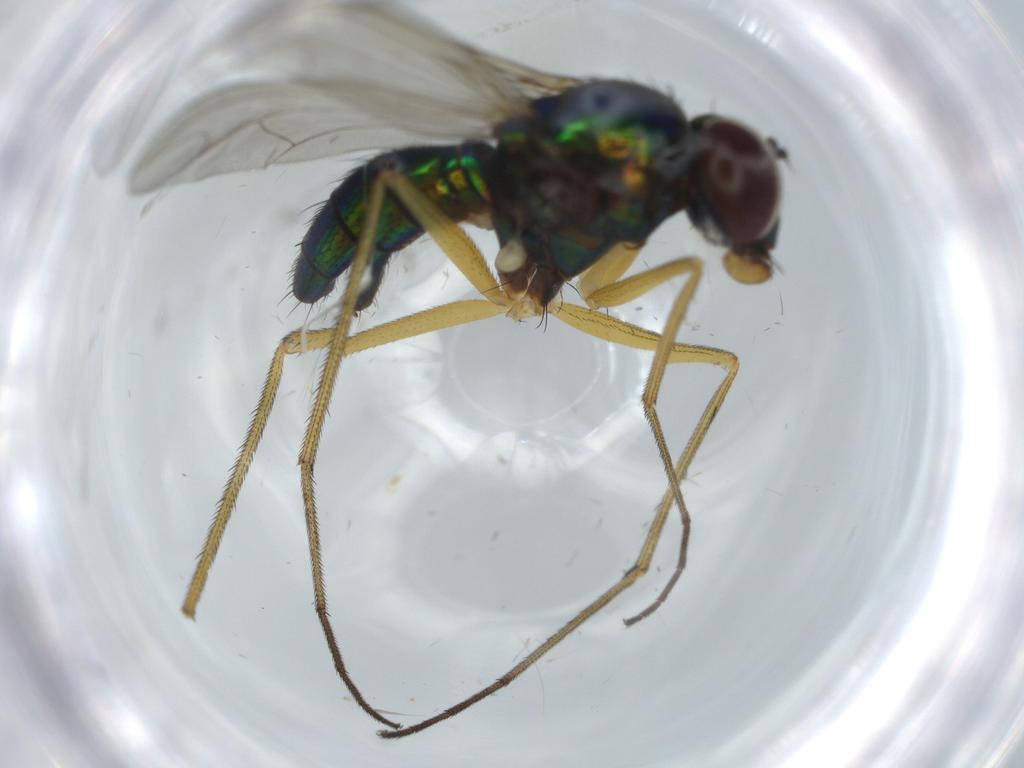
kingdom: Animalia
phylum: Arthropoda
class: Insecta
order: Diptera
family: Dolichopodidae
